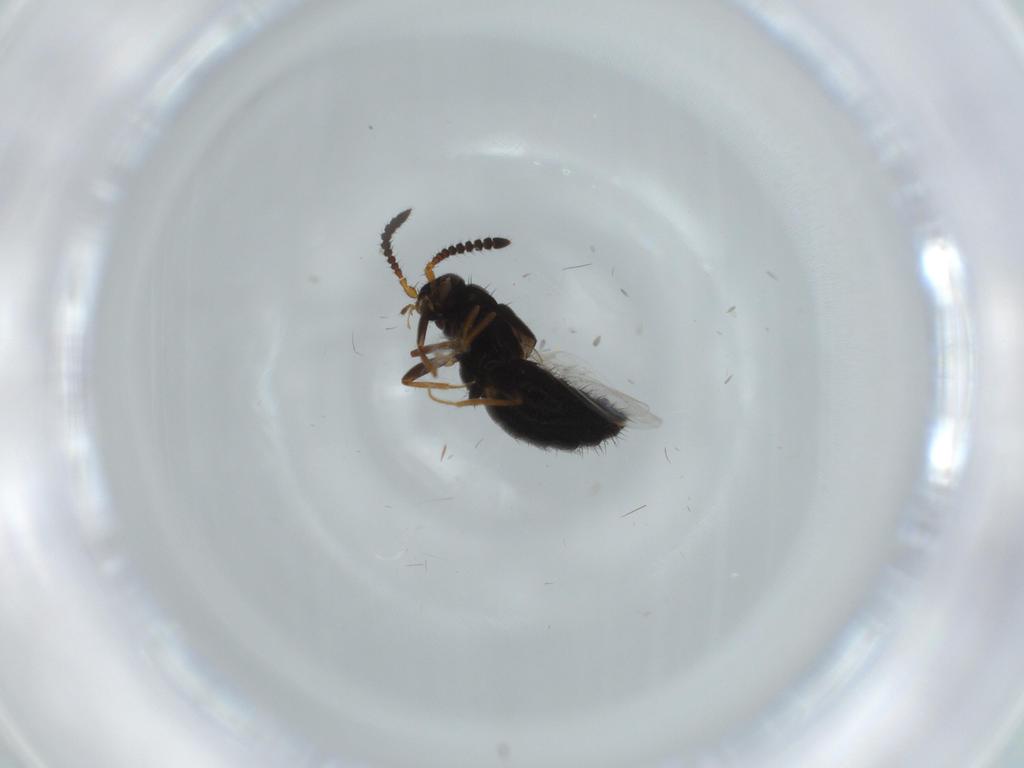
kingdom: Animalia
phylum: Arthropoda
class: Insecta
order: Coleoptera
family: Staphylinidae
